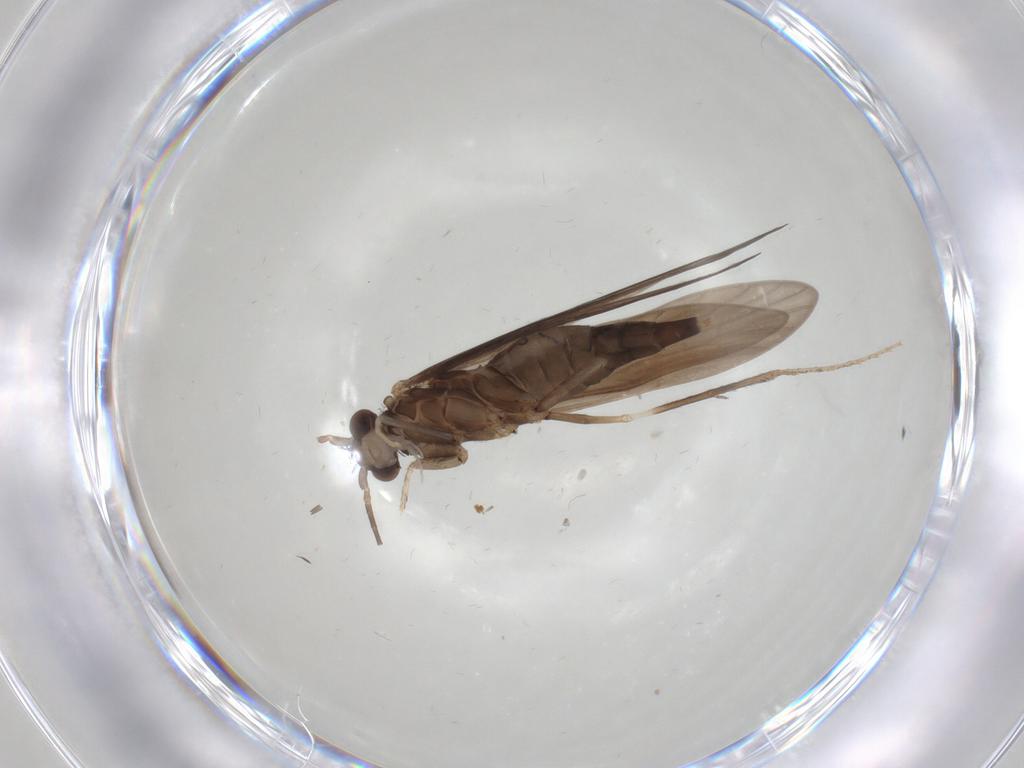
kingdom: Animalia
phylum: Arthropoda
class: Insecta
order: Trichoptera
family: Xiphocentronidae
